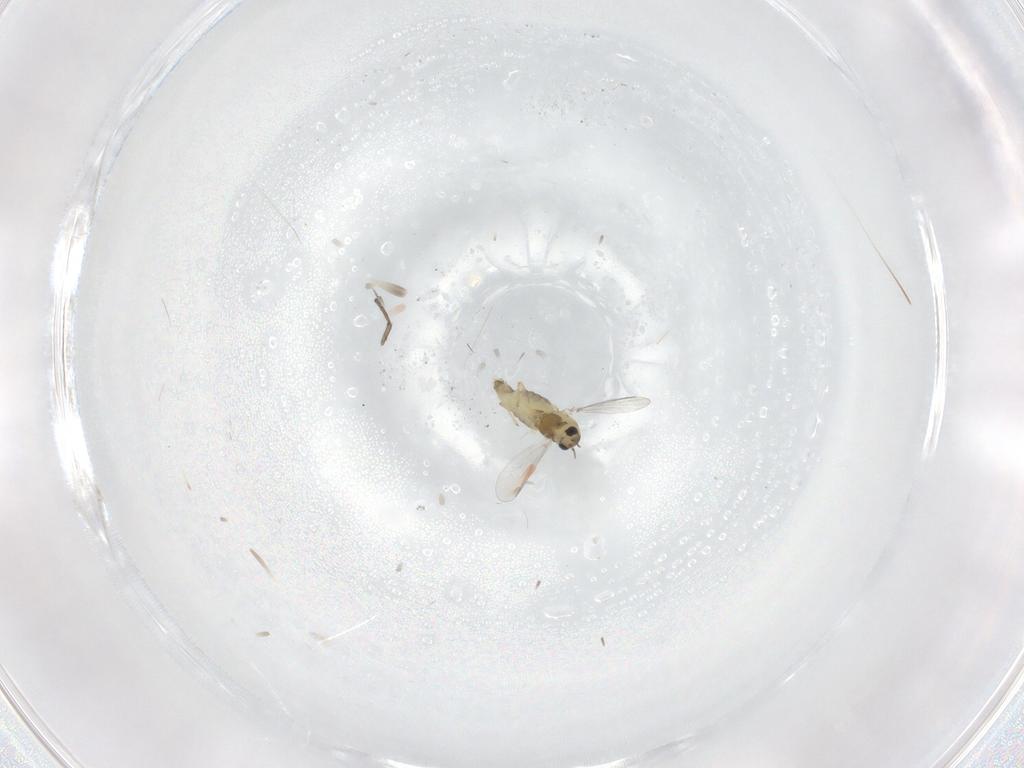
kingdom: Animalia
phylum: Arthropoda
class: Insecta
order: Diptera
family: Chironomidae
